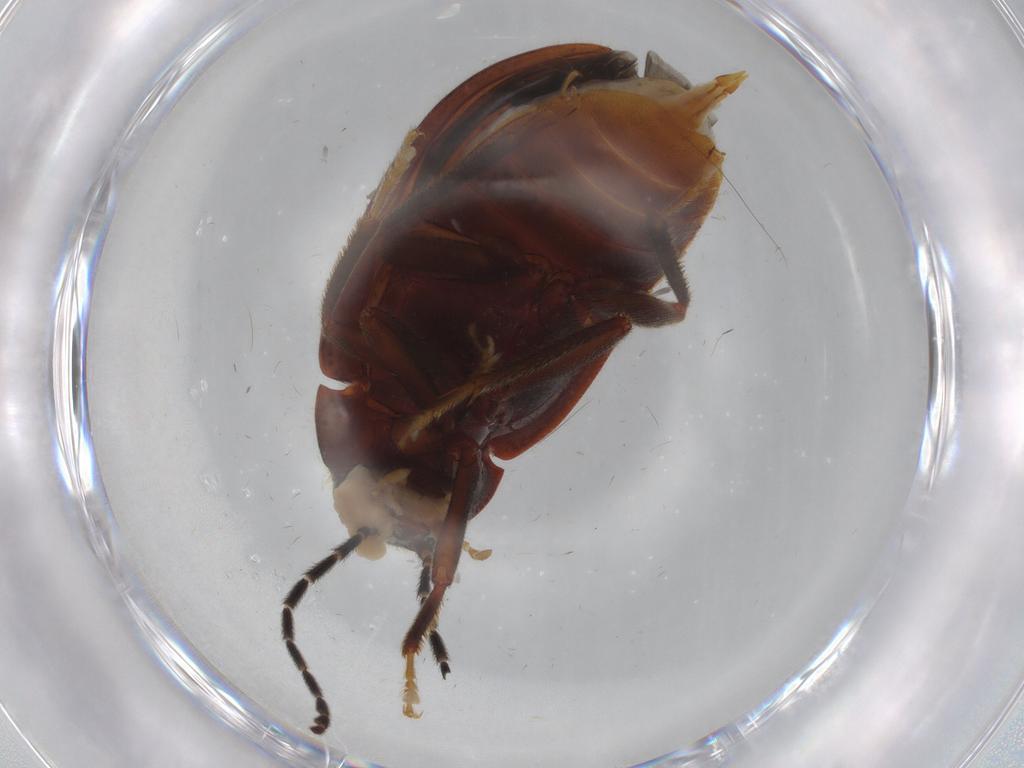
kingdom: Animalia
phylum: Arthropoda
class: Insecta
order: Coleoptera
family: Ptilodactylidae
